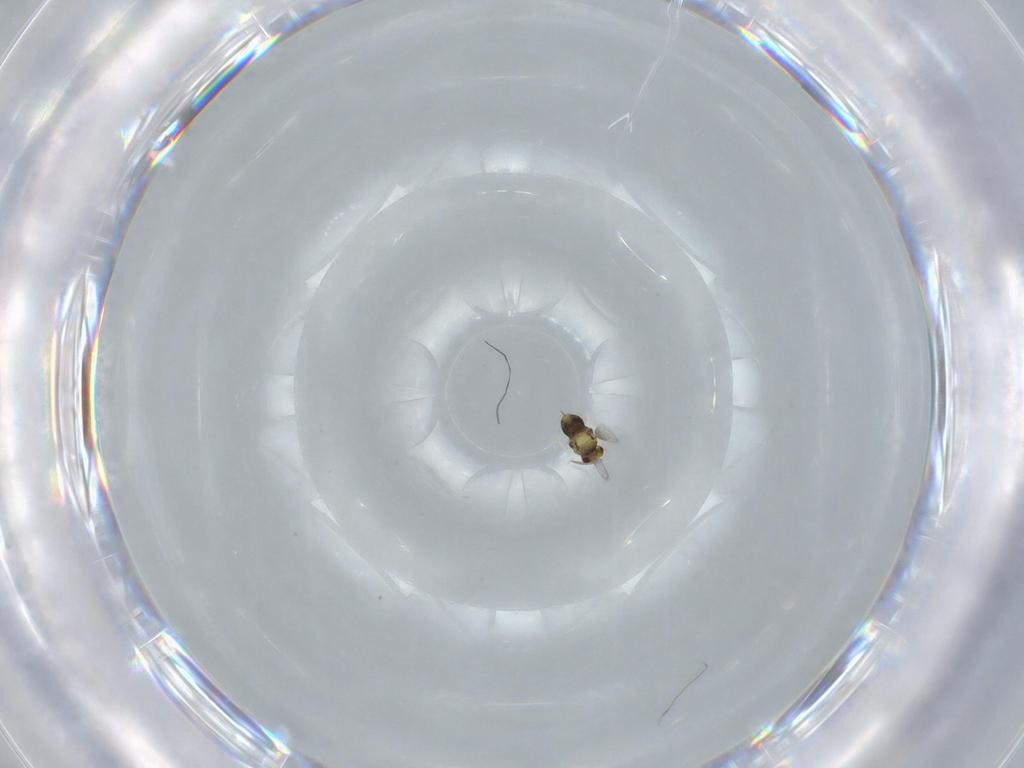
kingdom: Animalia
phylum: Arthropoda
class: Insecta
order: Hymenoptera
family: Aphelinidae
